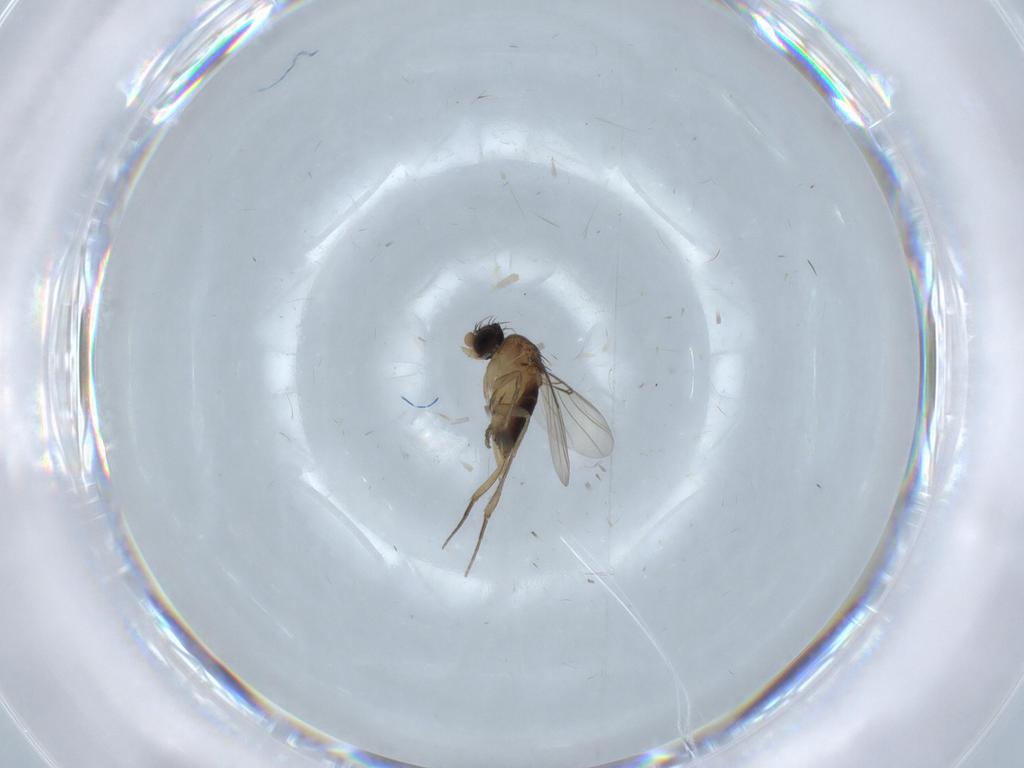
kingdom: Animalia
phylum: Arthropoda
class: Insecta
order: Diptera
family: Phoridae
